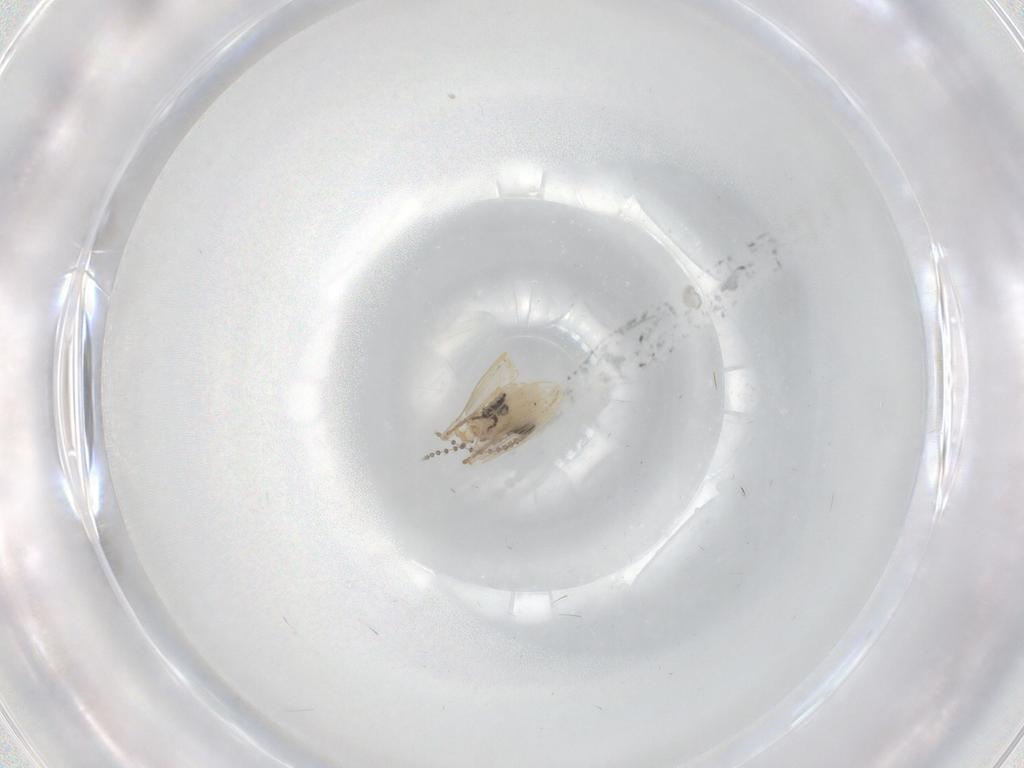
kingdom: Animalia
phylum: Arthropoda
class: Insecta
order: Diptera
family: Psychodidae
